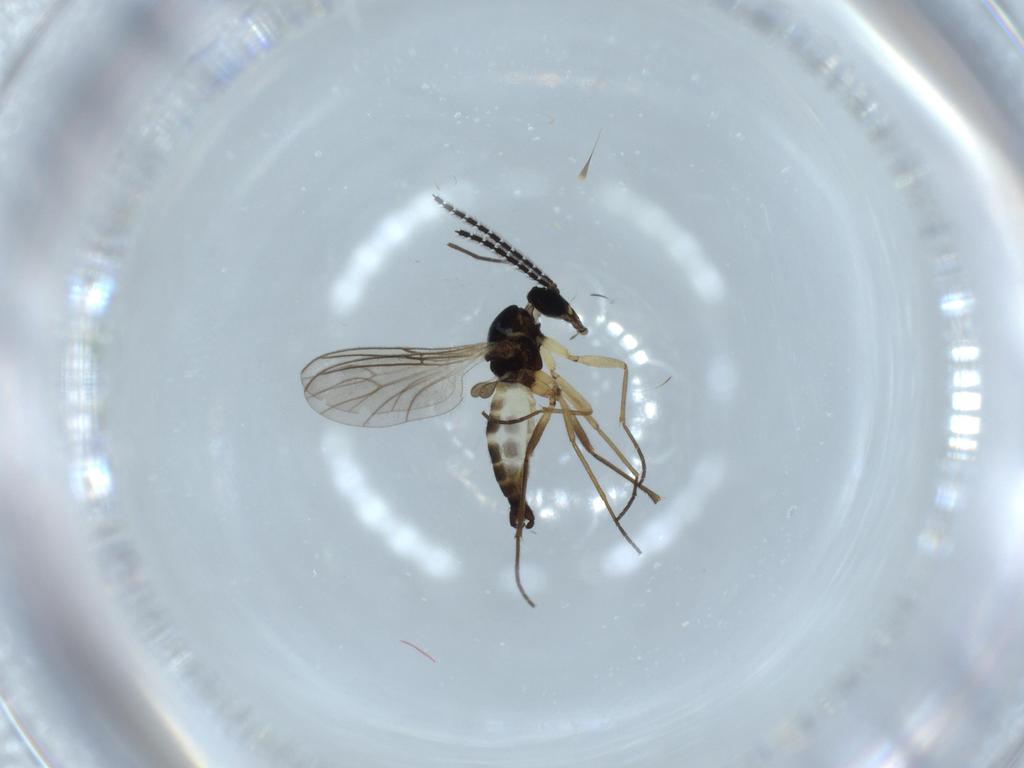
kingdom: Animalia
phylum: Arthropoda
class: Insecta
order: Diptera
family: Sciaridae
